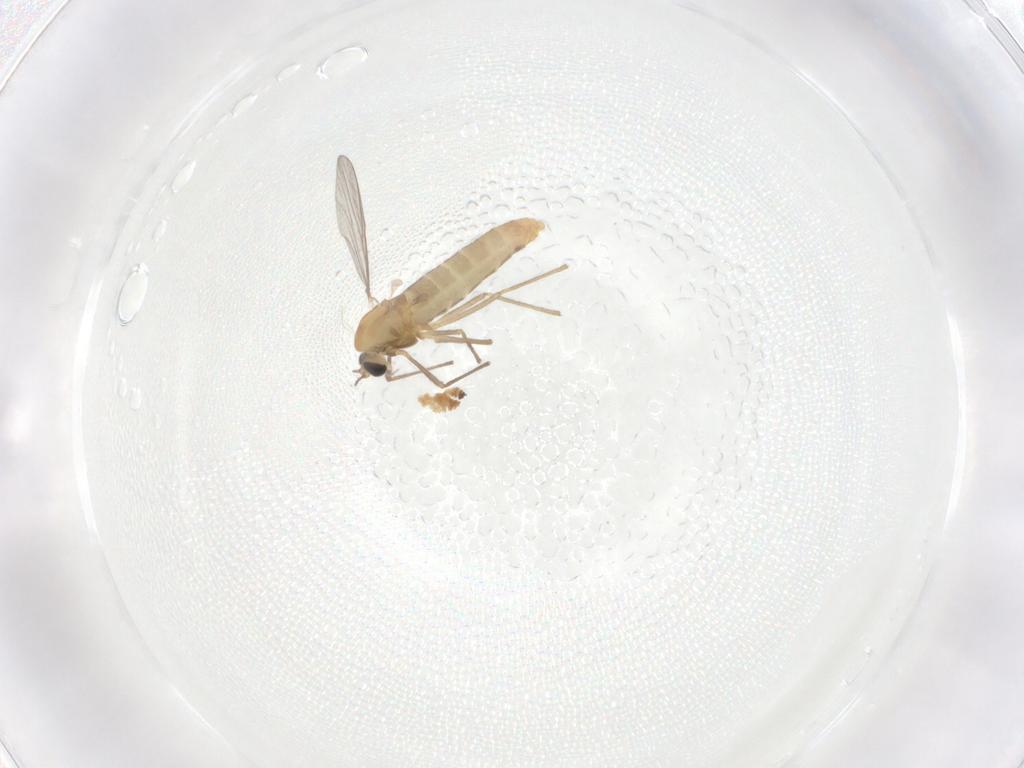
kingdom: Animalia
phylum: Arthropoda
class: Insecta
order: Diptera
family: Chironomidae
